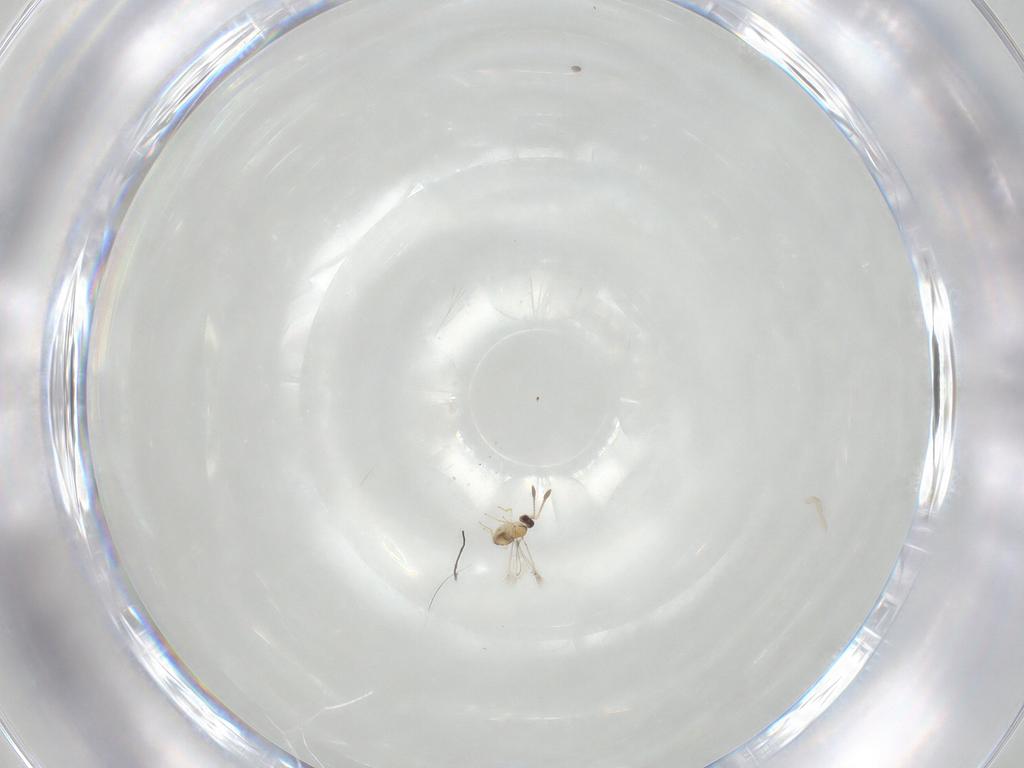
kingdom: Animalia
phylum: Arthropoda
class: Insecta
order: Hymenoptera
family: Mymaridae
